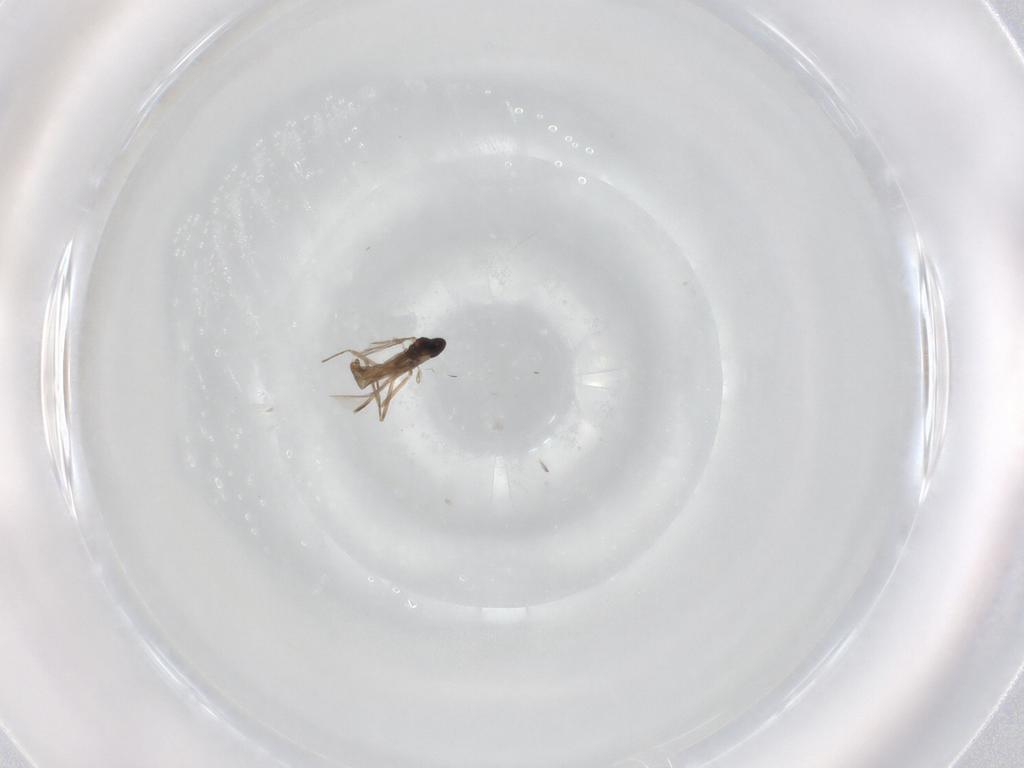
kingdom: Animalia
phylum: Arthropoda
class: Insecta
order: Diptera
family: Cecidomyiidae
